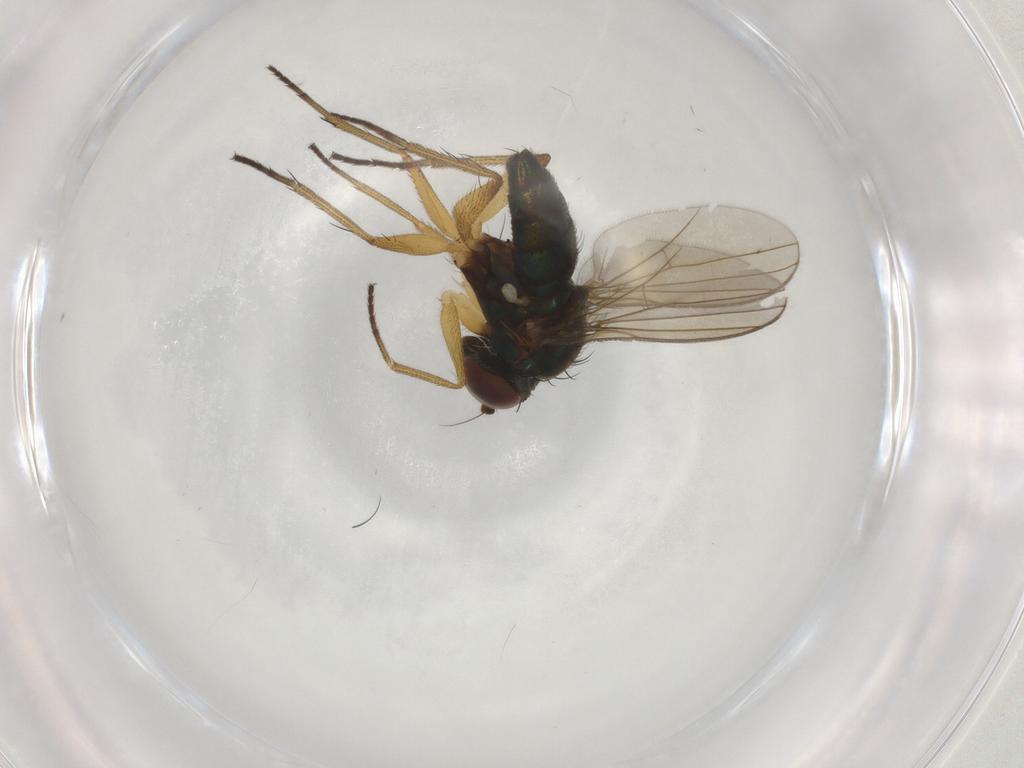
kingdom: Animalia
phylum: Arthropoda
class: Insecta
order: Diptera
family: Dolichopodidae
